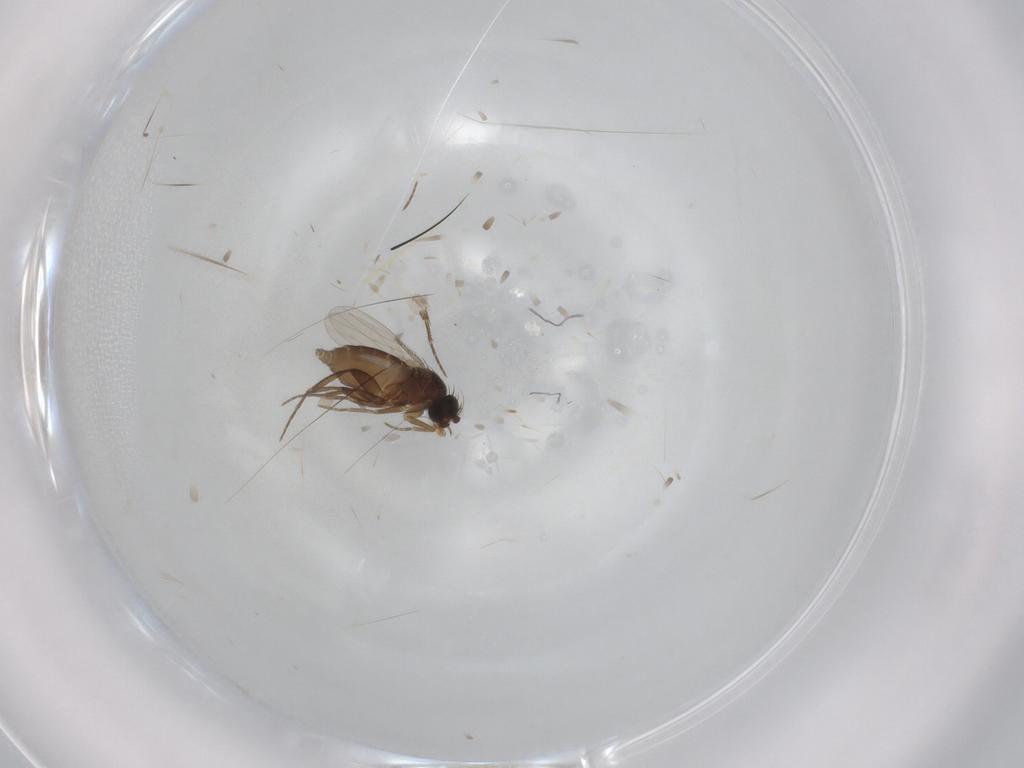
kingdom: Animalia
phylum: Arthropoda
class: Insecta
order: Diptera
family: Phoridae
